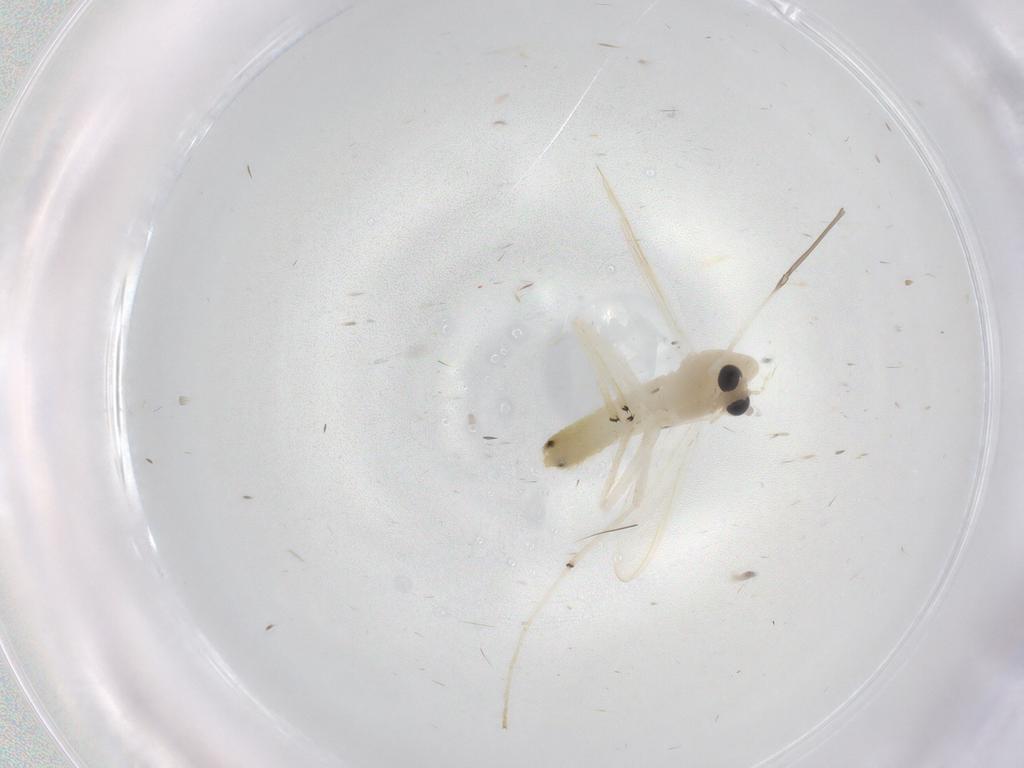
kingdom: Animalia
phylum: Arthropoda
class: Insecta
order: Diptera
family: Chironomidae
